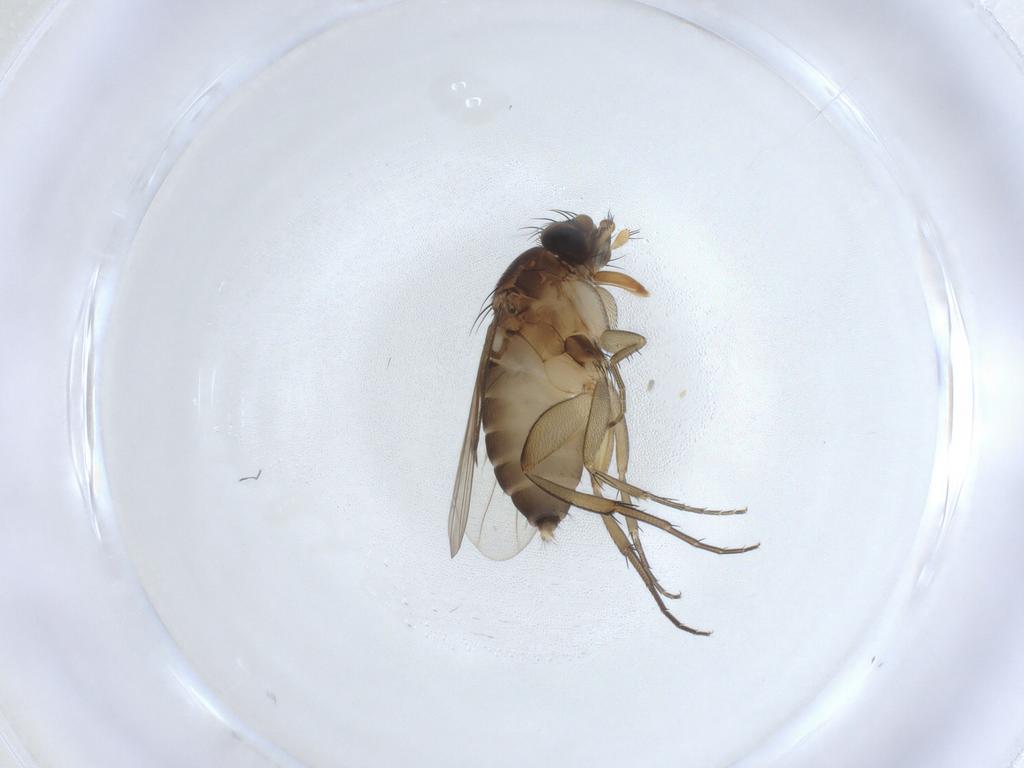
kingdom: Animalia
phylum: Arthropoda
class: Insecta
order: Diptera
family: Phoridae
